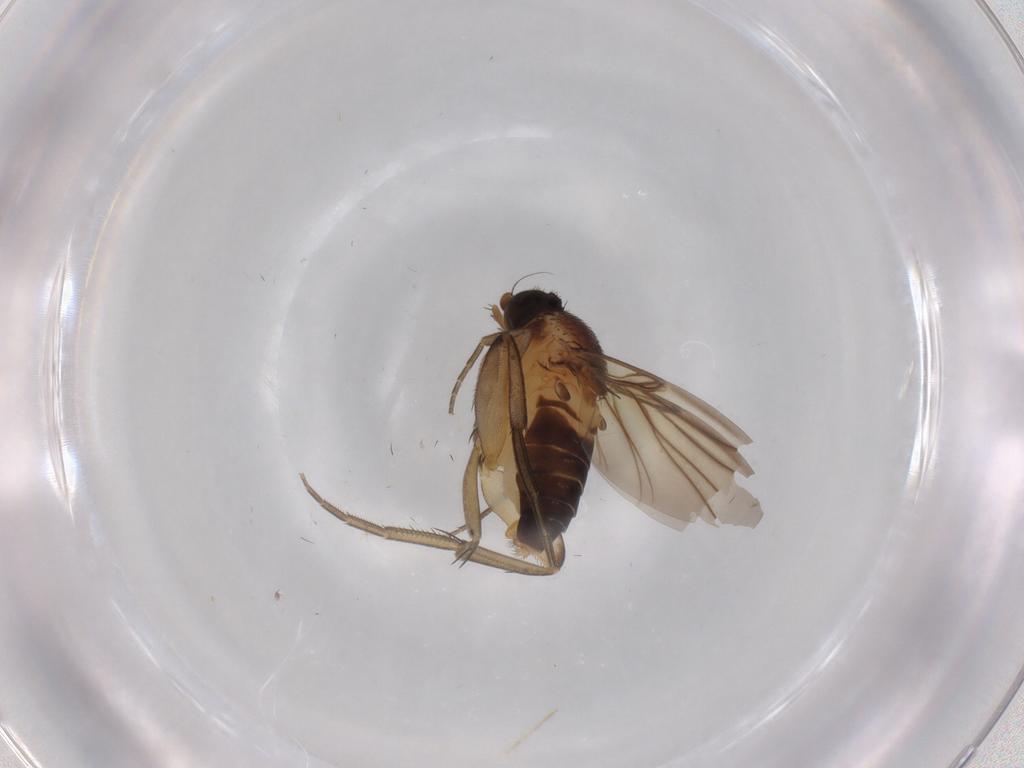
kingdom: Animalia
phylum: Arthropoda
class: Insecta
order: Diptera
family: Phoridae
